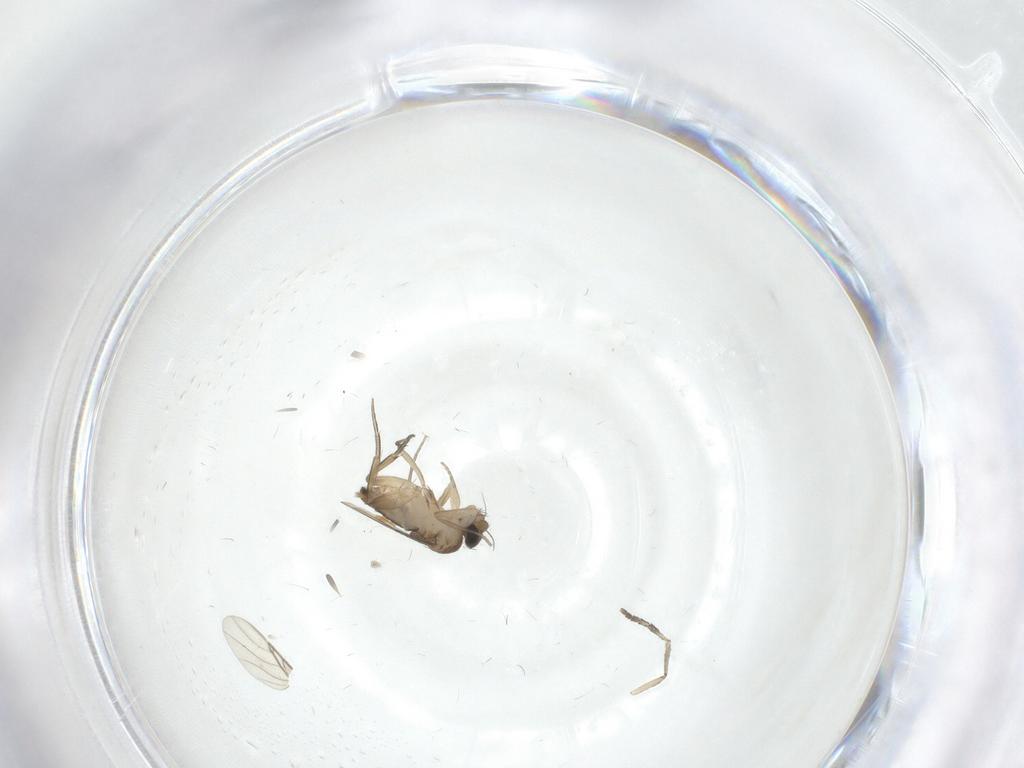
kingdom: Animalia
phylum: Arthropoda
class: Insecta
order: Diptera
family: Phoridae
